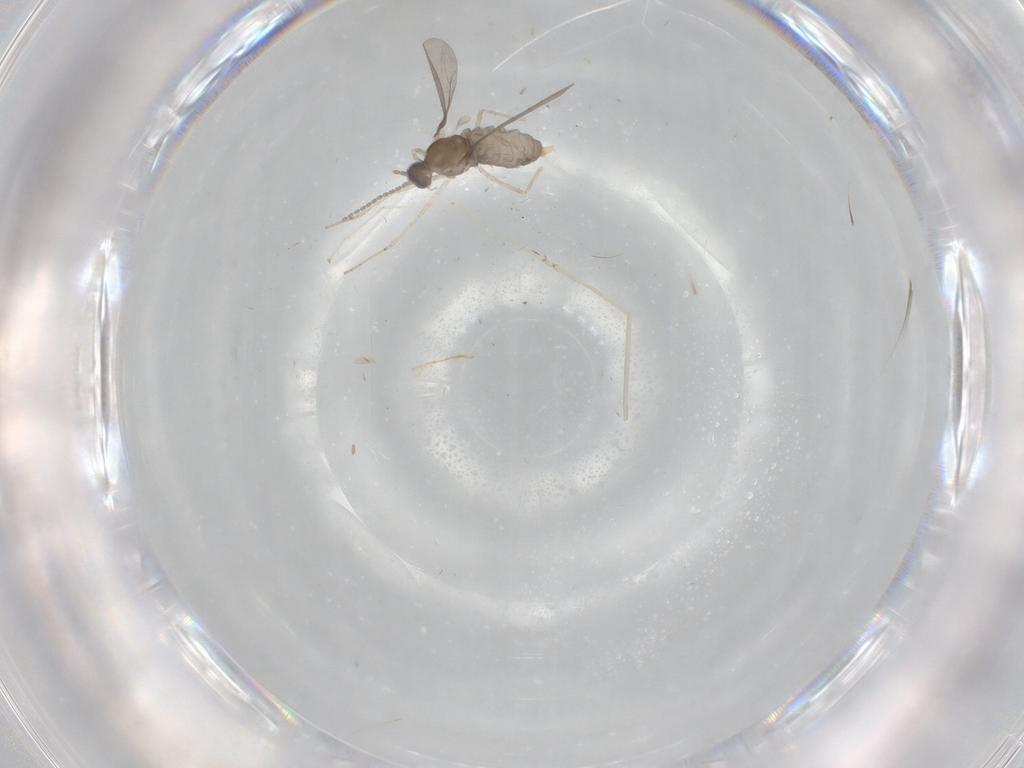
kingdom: Animalia
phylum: Arthropoda
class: Insecta
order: Diptera
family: Cecidomyiidae
